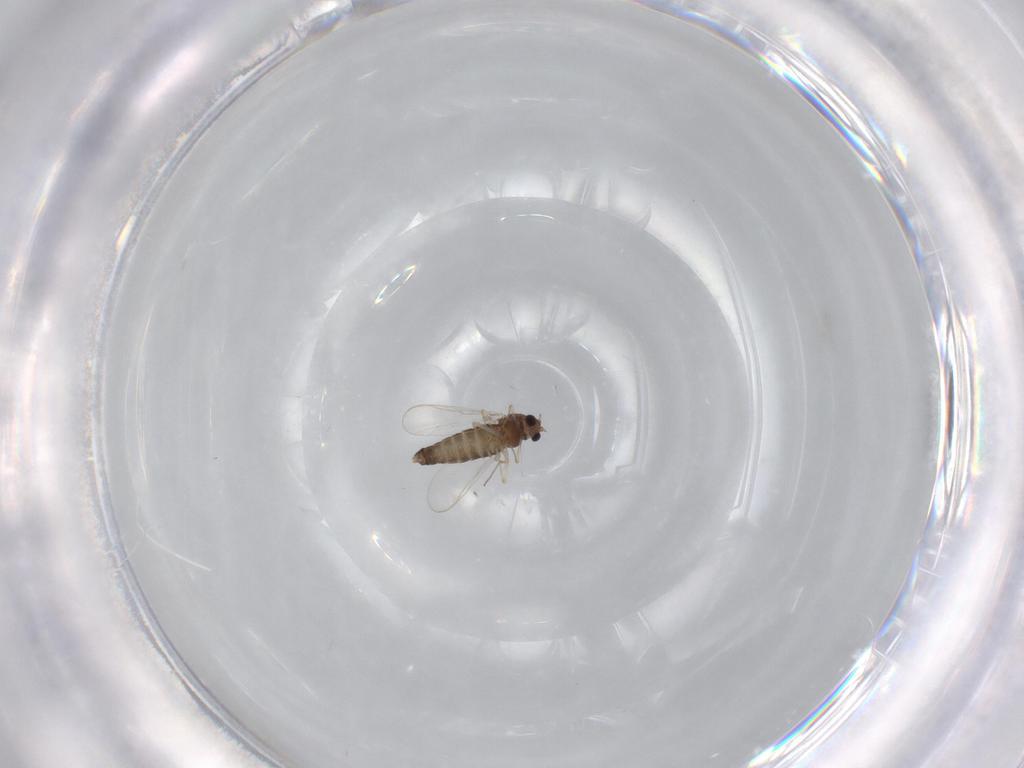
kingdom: Animalia
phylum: Arthropoda
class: Insecta
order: Diptera
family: Chironomidae
